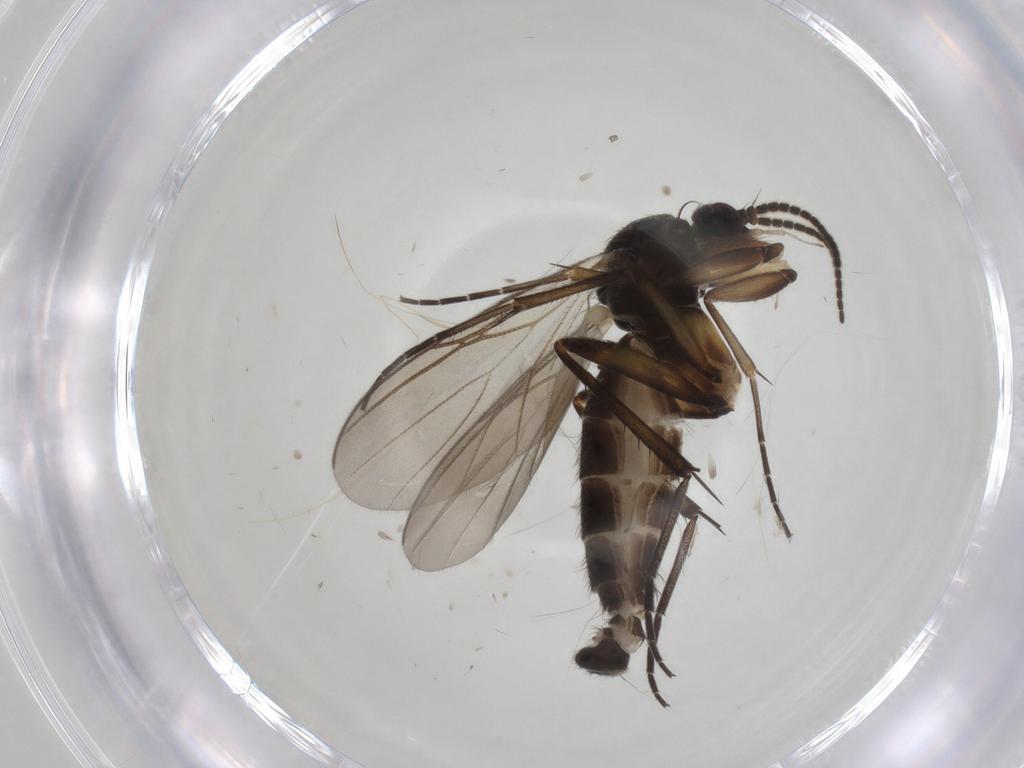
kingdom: Animalia
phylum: Arthropoda
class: Insecta
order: Diptera
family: Mycetophilidae
